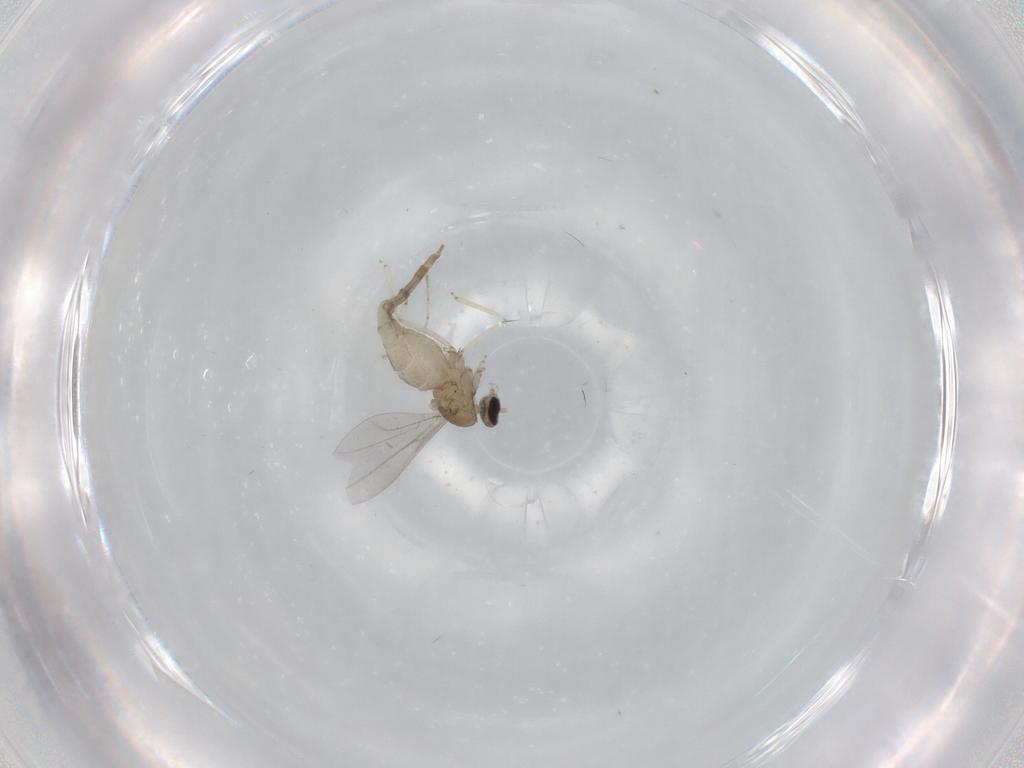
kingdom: Animalia
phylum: Arthropoda
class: Insecta
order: Diptera
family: Cecidomyiidae
